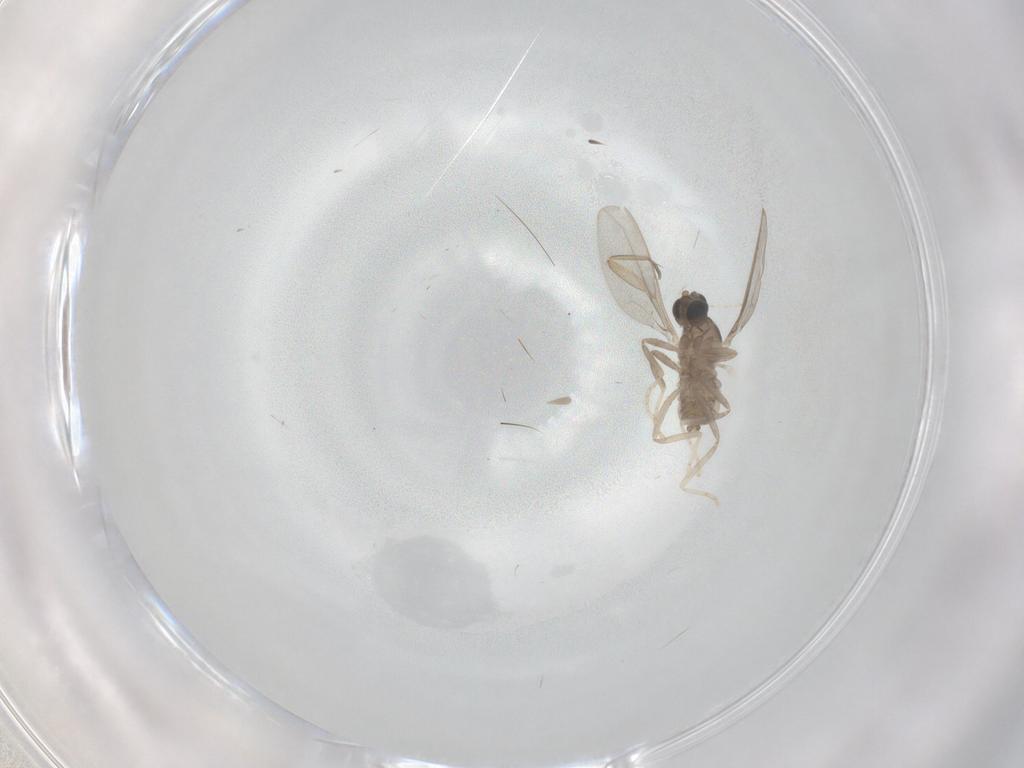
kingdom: Animalia
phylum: Arthropoda
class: Insecta
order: Diptera
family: Cecidomyiidae
